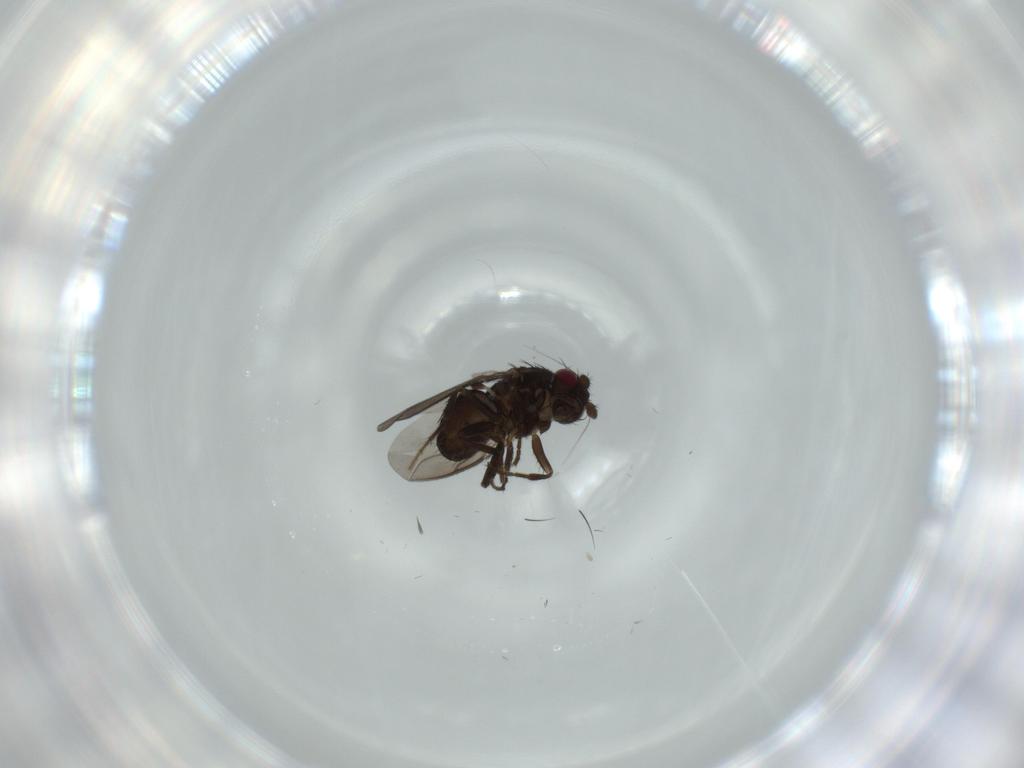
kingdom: Animalia
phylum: Arthropoda
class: Insecta
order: Diptera
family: Sphaeroceridae
